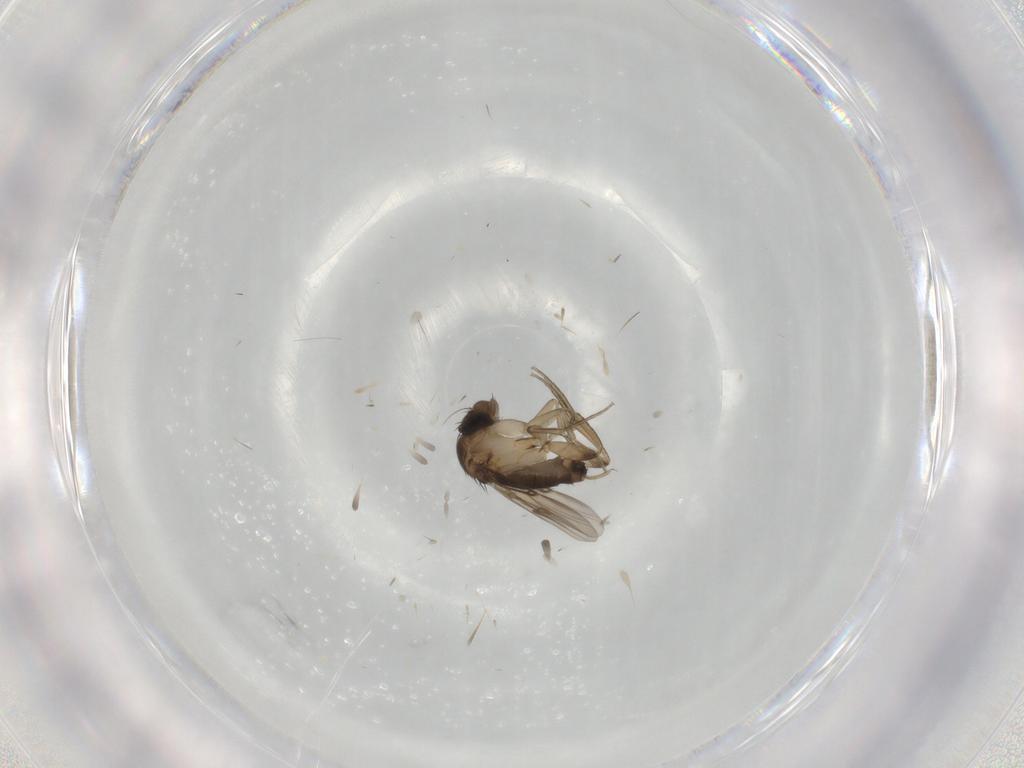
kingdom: Animalia
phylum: Arthropoda
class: Insecta
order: Diptera
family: Phoridae
